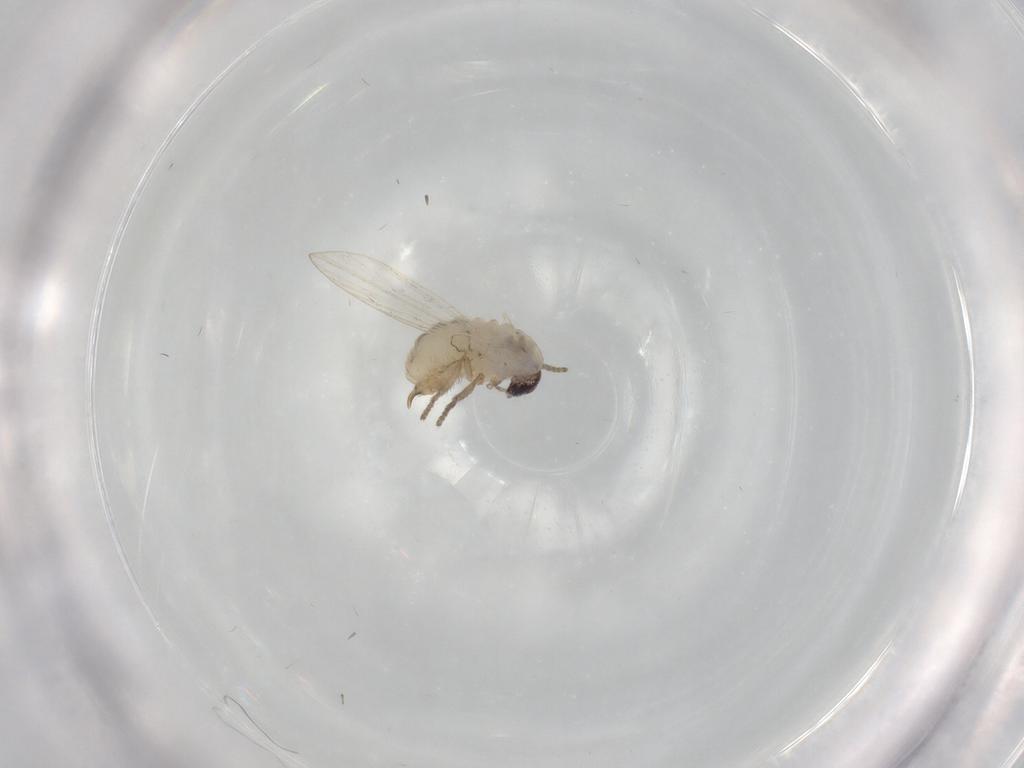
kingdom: Animalia
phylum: Arthropoda
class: Insecta
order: Diptera
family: Psychodidae
